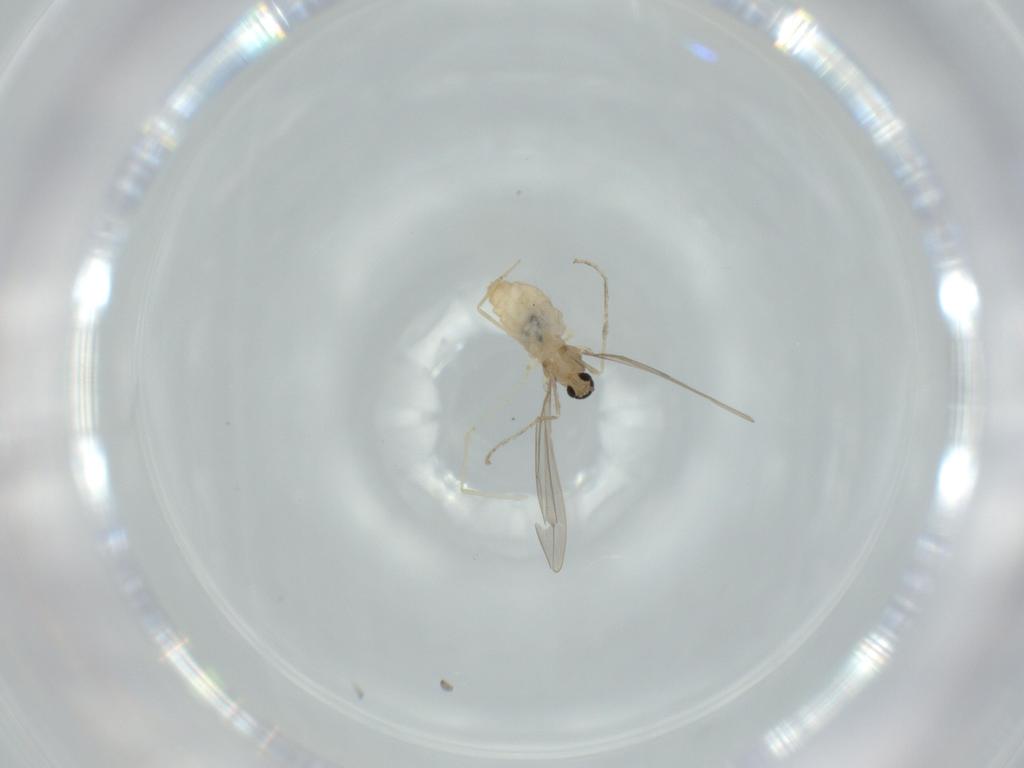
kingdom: Animalia
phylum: Arthropoda
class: Insecta
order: Diptera
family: Cecidomyiidae
